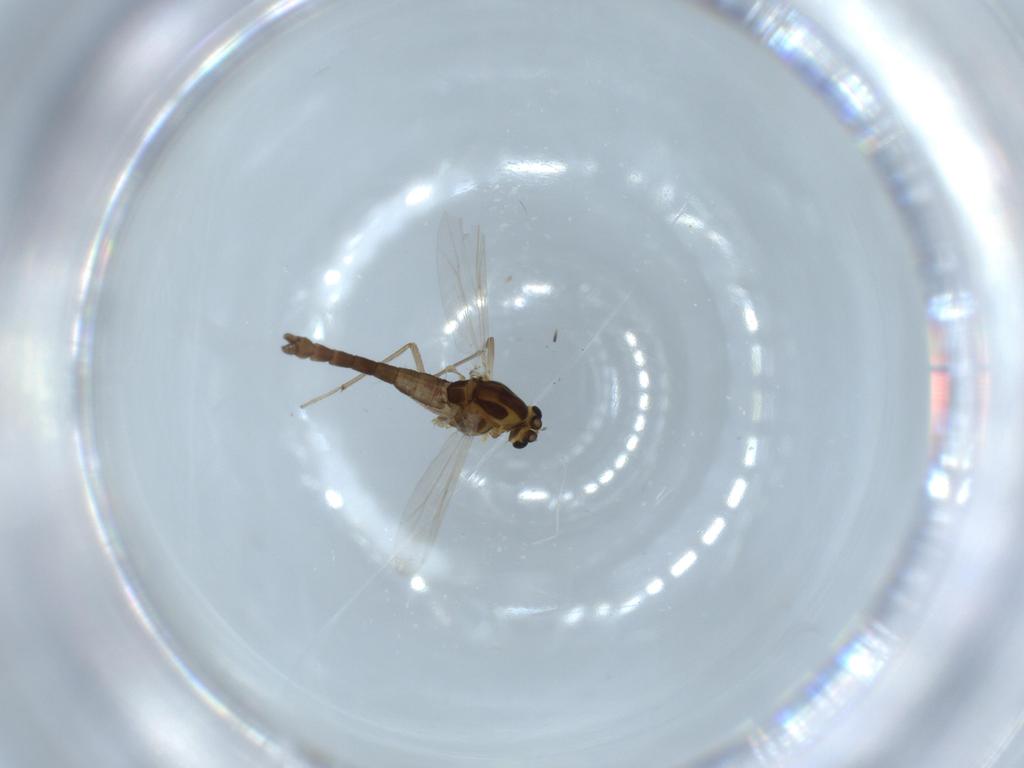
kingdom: Animalia
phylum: Arthropoda
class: Insecta
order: Diptera
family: Chironomidae
